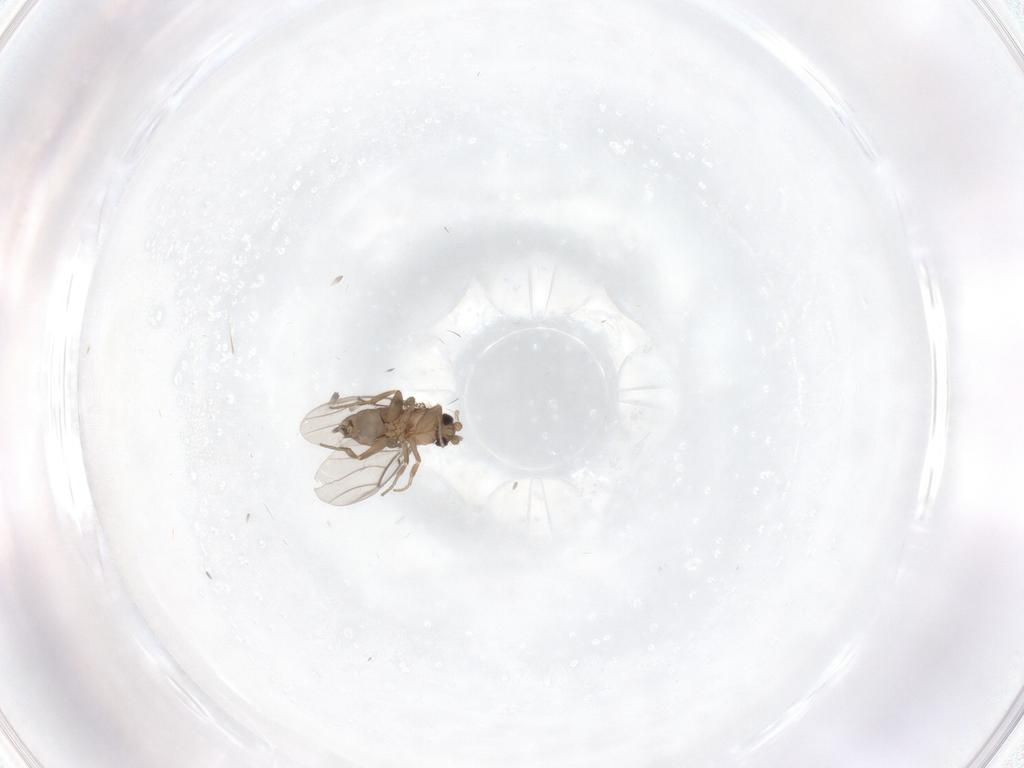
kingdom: Animalia
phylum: Arthropoda
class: Insecta
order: Diptera
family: Phoridae
